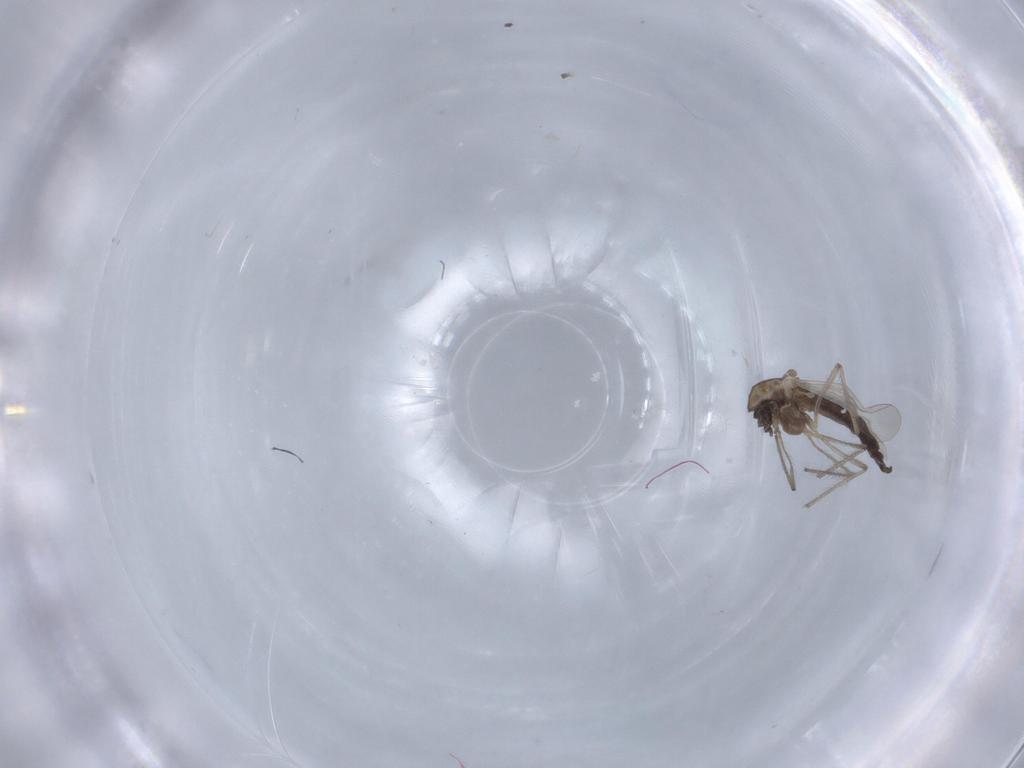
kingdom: Animalia
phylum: Arthropoda
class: Insecta
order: Diptera
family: Chironomidae
